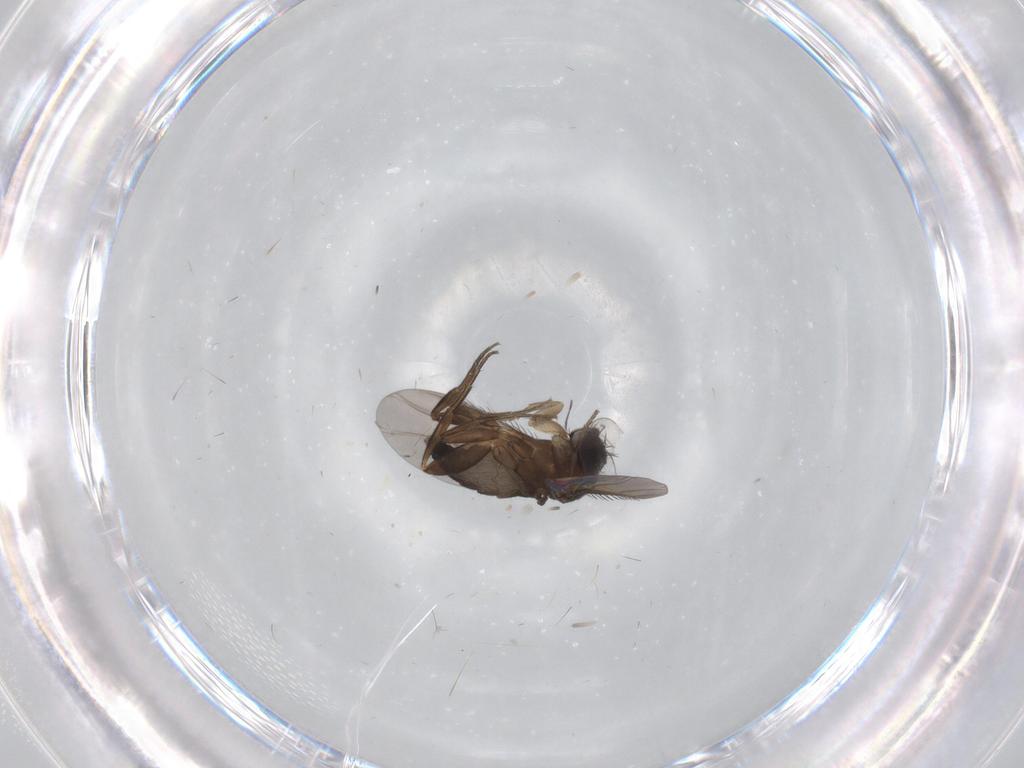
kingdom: Animalia
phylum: Arthropoda
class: Insecta
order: Diptera
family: Phoridae
